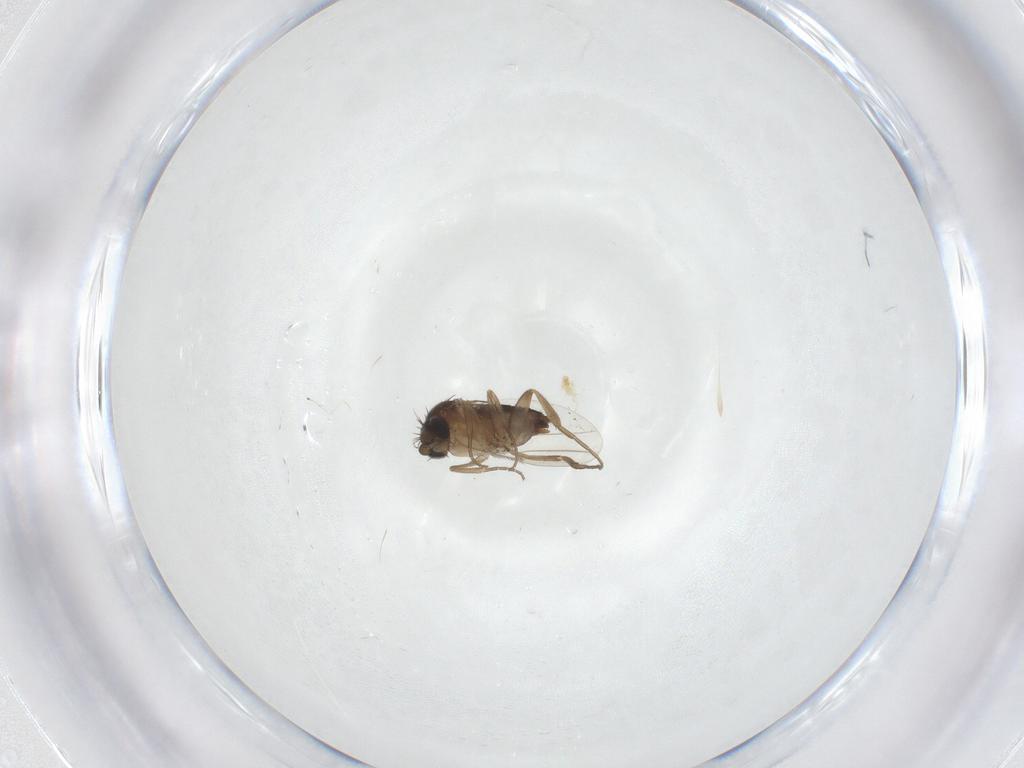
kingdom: Animalia
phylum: Arthropoda
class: Insecta
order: Diptera
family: Phoridae
